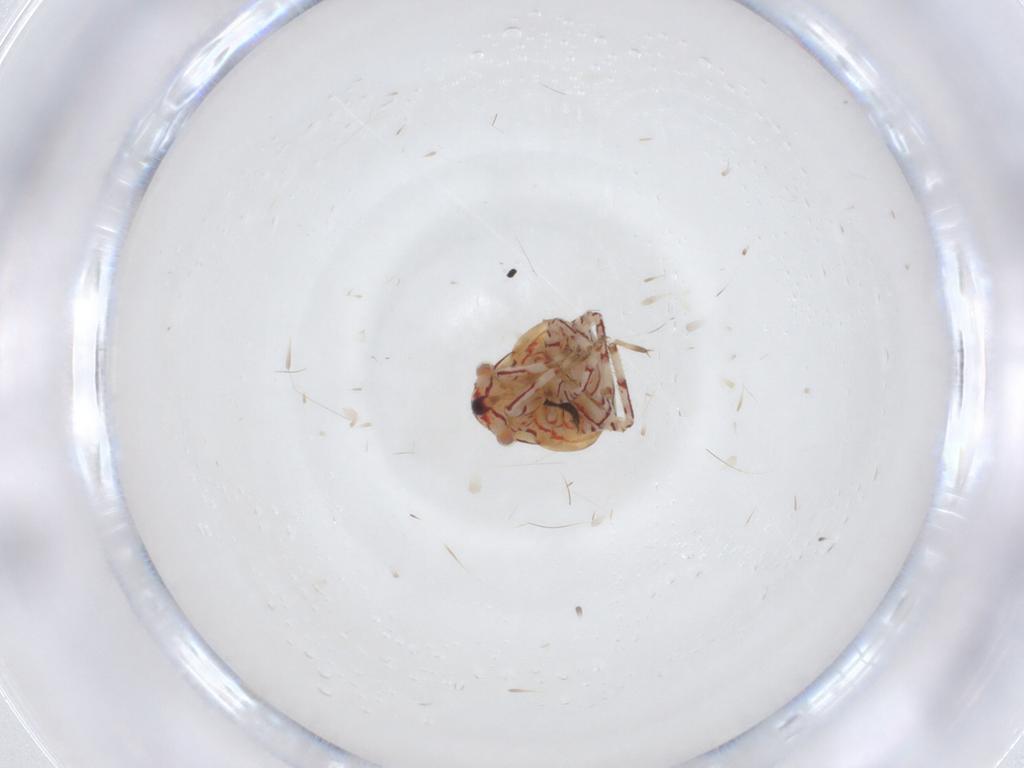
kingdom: Animalia
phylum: Arthropoda
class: Insecta
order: Hemiptera
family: Miridae
